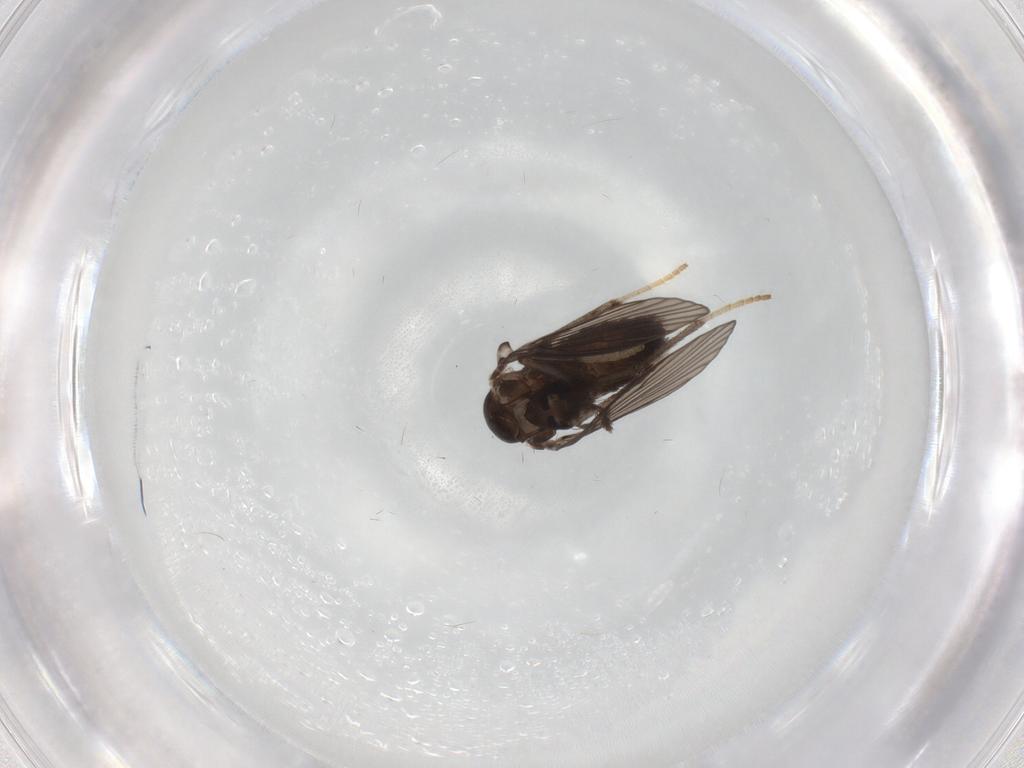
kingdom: Animalia
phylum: Arthropoda
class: Insecta
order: Diptera
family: Psychodidae
